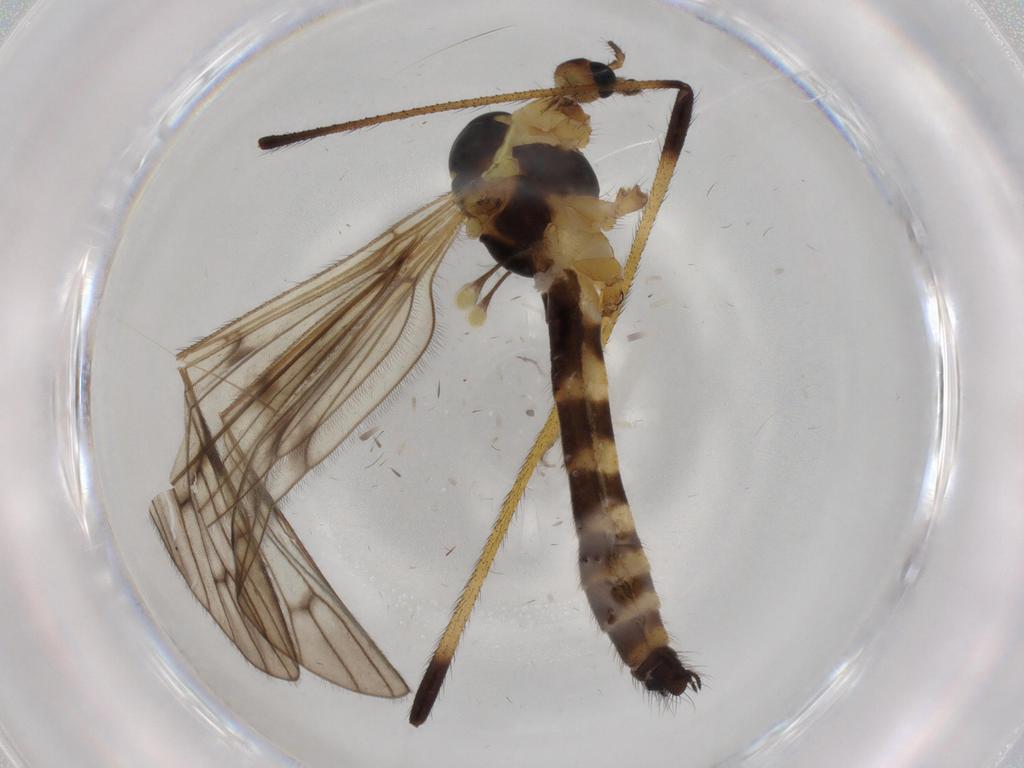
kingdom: Animalia
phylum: Arthropoda
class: Insecta
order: Diptera
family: Limoniidae
